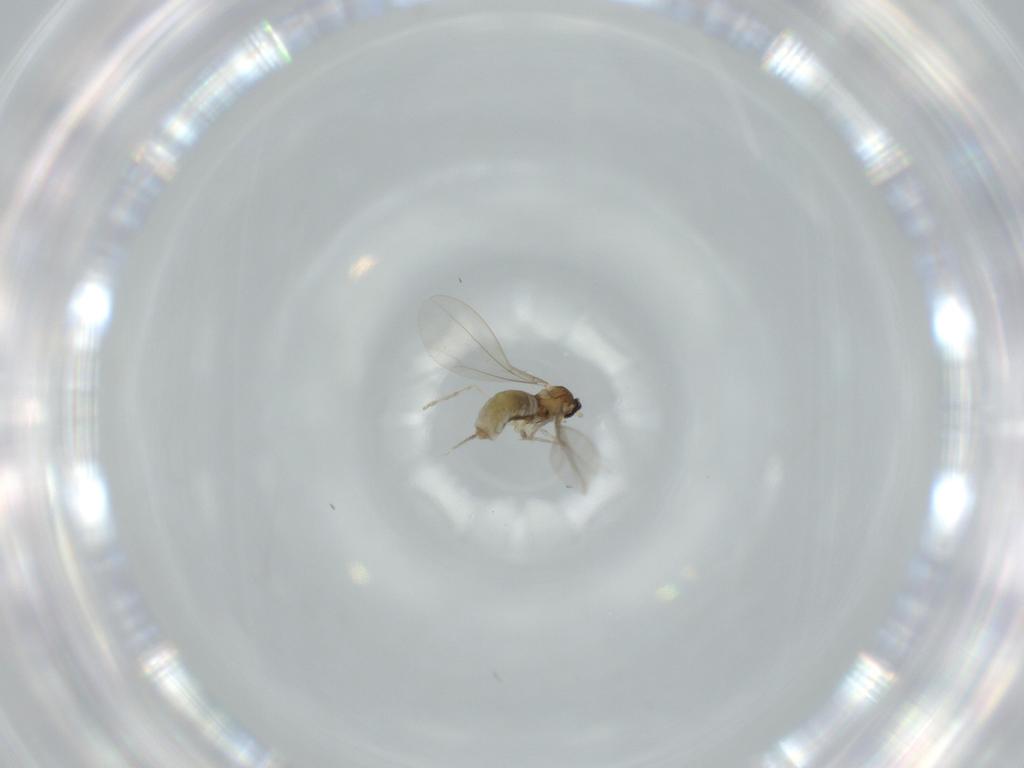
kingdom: Animalia
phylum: Arthropoda
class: Insecta
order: Diptera
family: Cecidomyiidae
